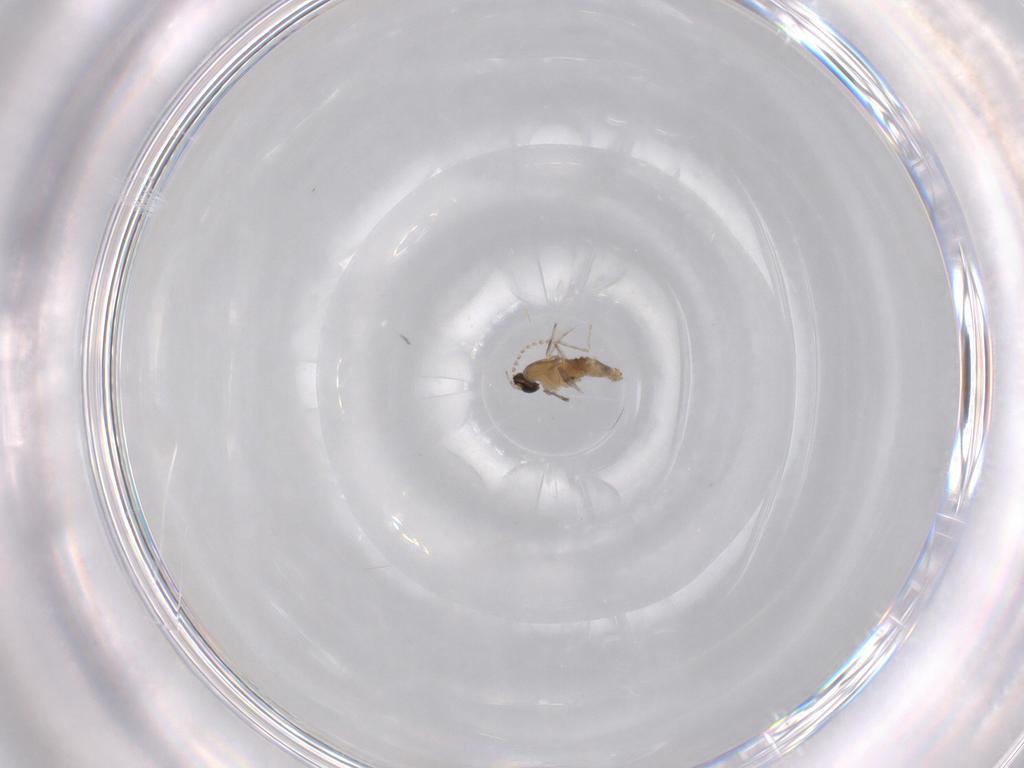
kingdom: Animalia
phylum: Arthropoda
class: Insecta
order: Diptera
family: Cecidomyiidae
